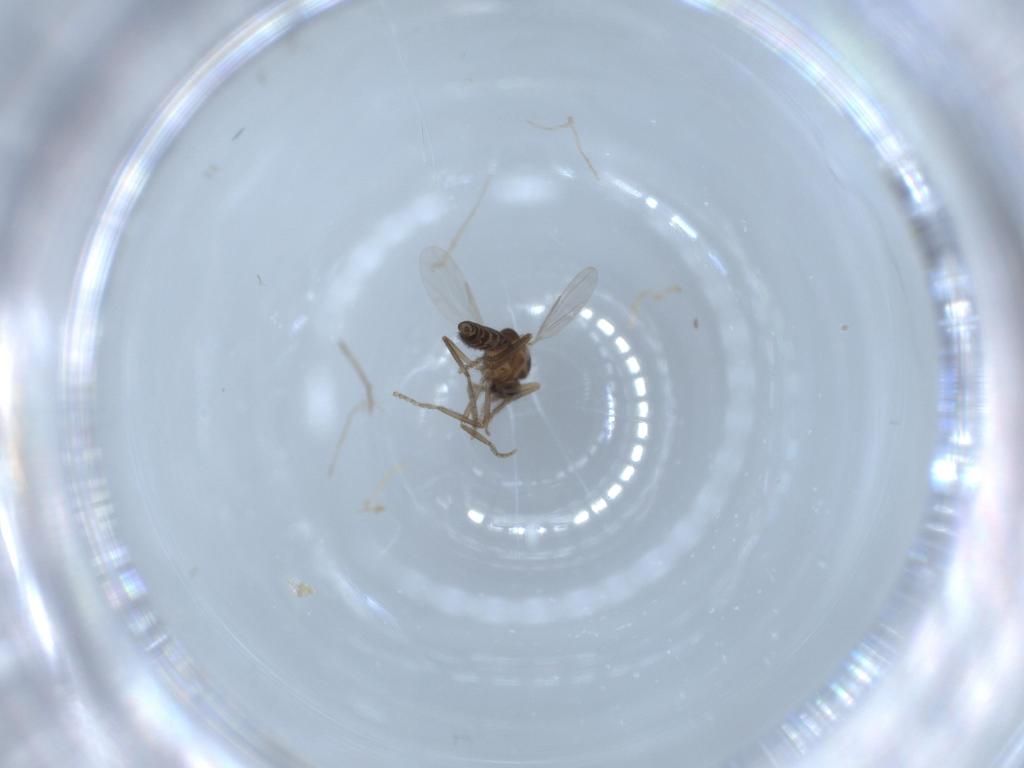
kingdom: Animalia
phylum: Arthropoda
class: Insecta
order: Diptera
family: Ceratopogonidae
